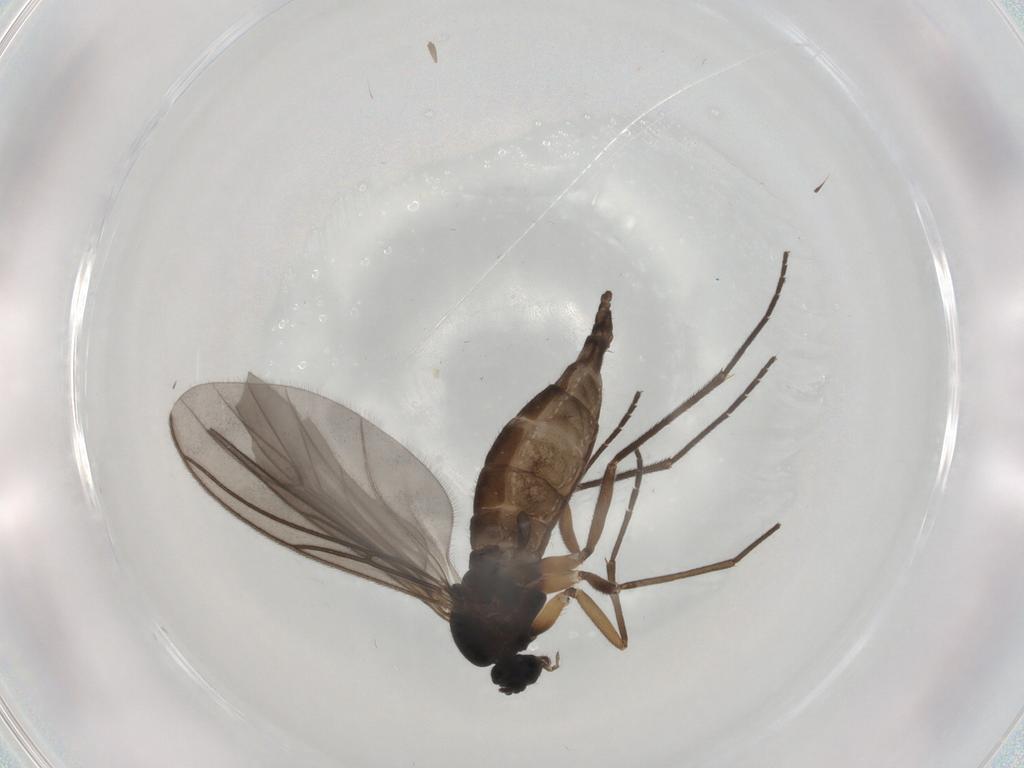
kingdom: Animalia
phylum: Arthropoda
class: Insecta
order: Diptera
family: Sciaridae
